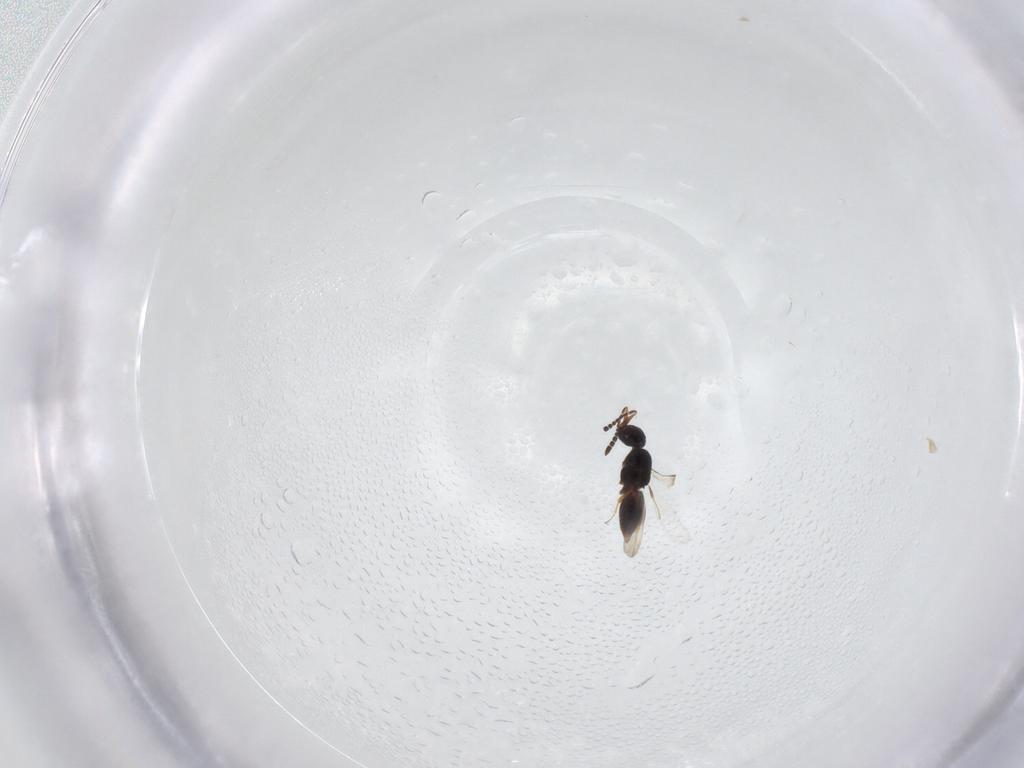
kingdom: Animalia
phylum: Arthropoda
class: Insecta
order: Hymenoptera
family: Ceraphronidae
